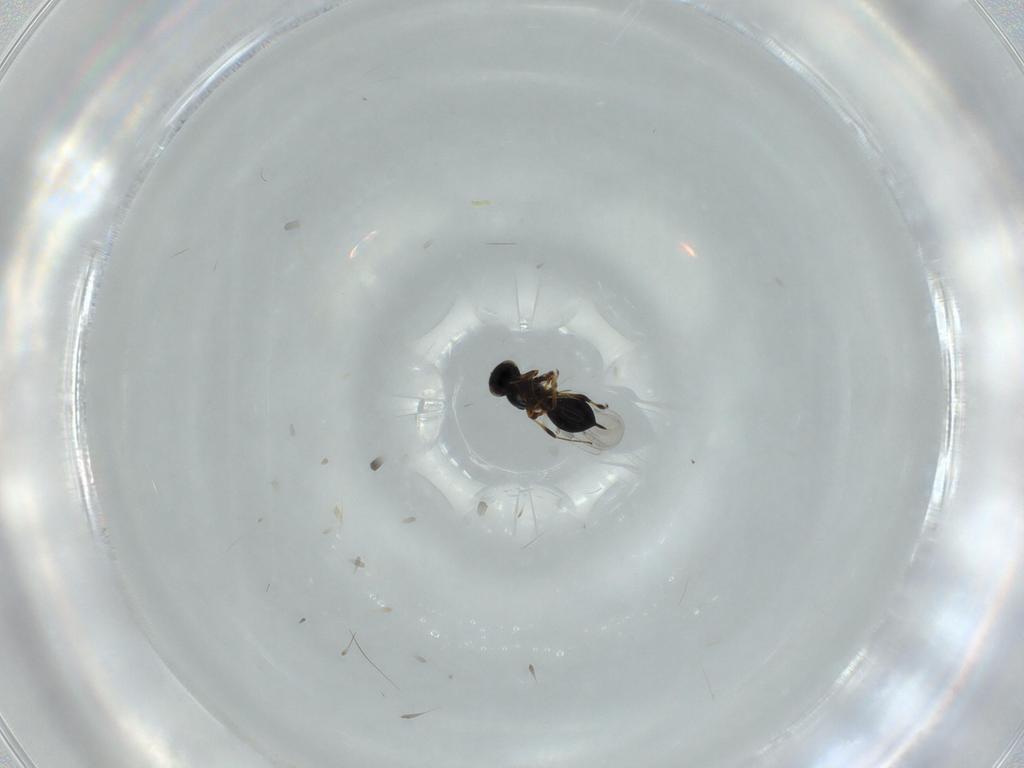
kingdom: Animalia
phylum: Arthropoda
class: Insecta
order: Hymenoptera
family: Platygastridae
